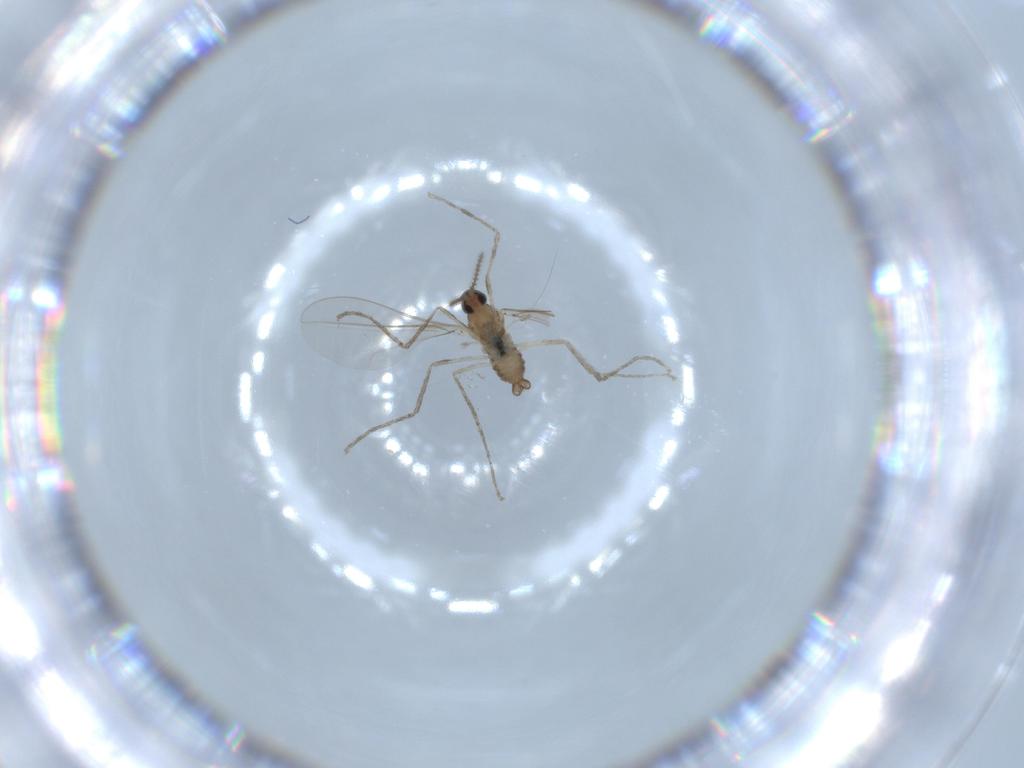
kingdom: Animalia
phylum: Arthropoda
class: Insecta
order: Diptera
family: Cecidomyiidae
